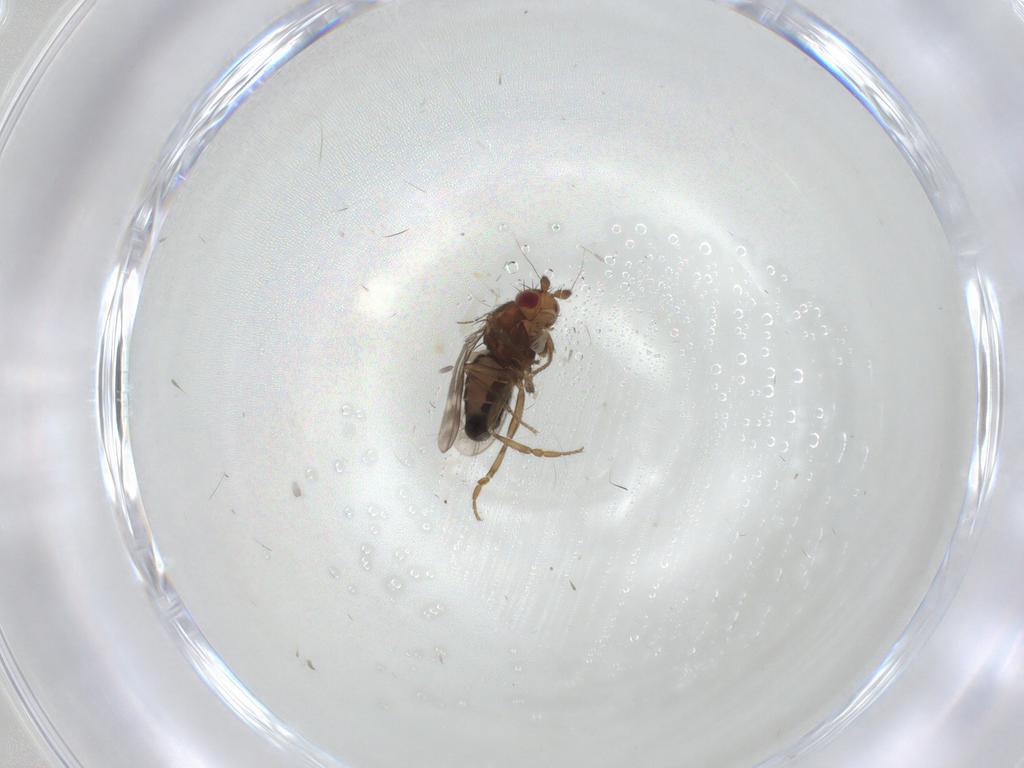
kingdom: Animalia
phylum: Arthropoda
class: Insecta
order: Diptera
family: Sphaeroceridae
